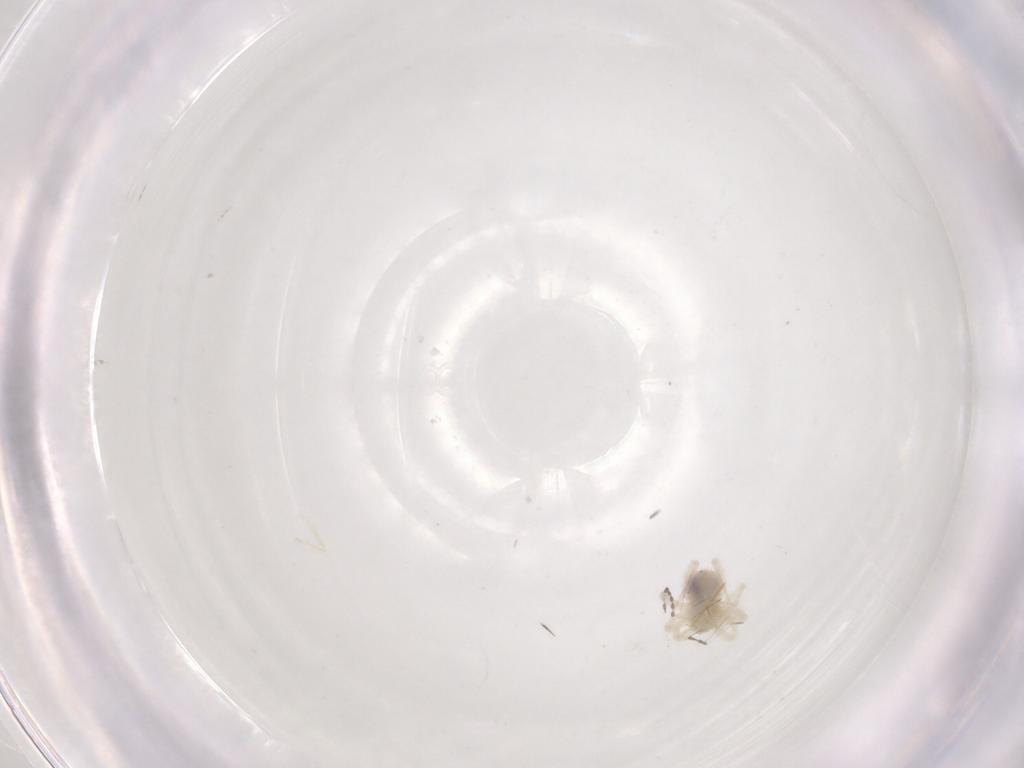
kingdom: Animalia
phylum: Arthropoda
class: Arachnida
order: Trombidiformes
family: Anystidae
